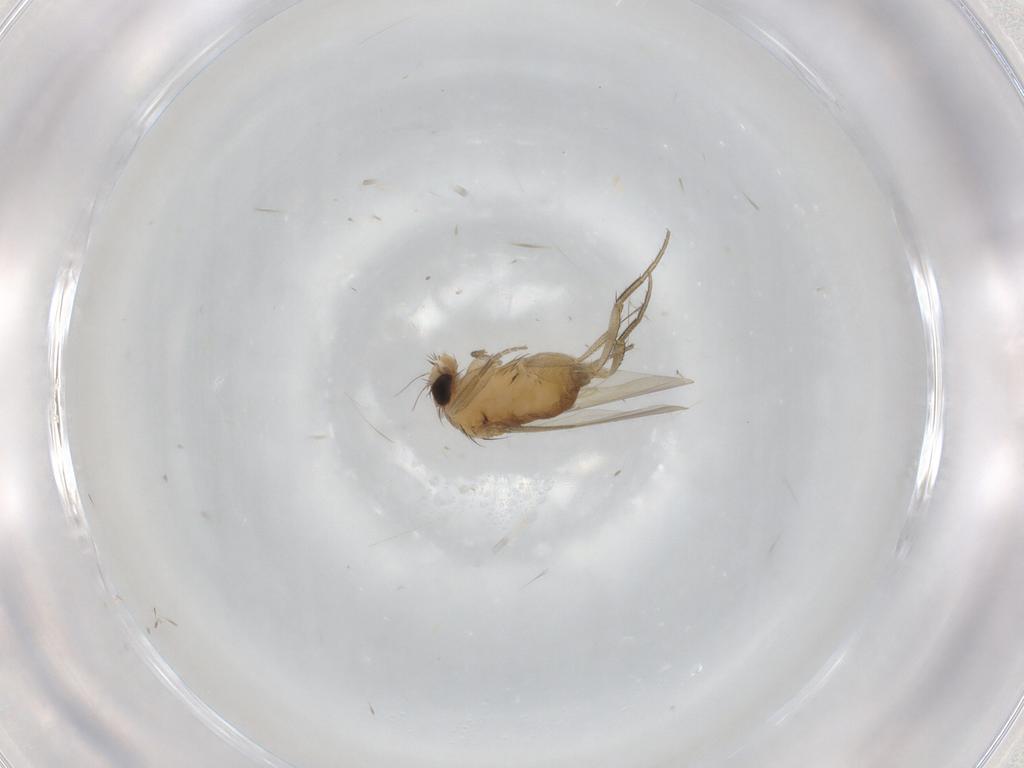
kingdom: Animalia
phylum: Arthropoda
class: Insecta
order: Diptera
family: Phoridae
